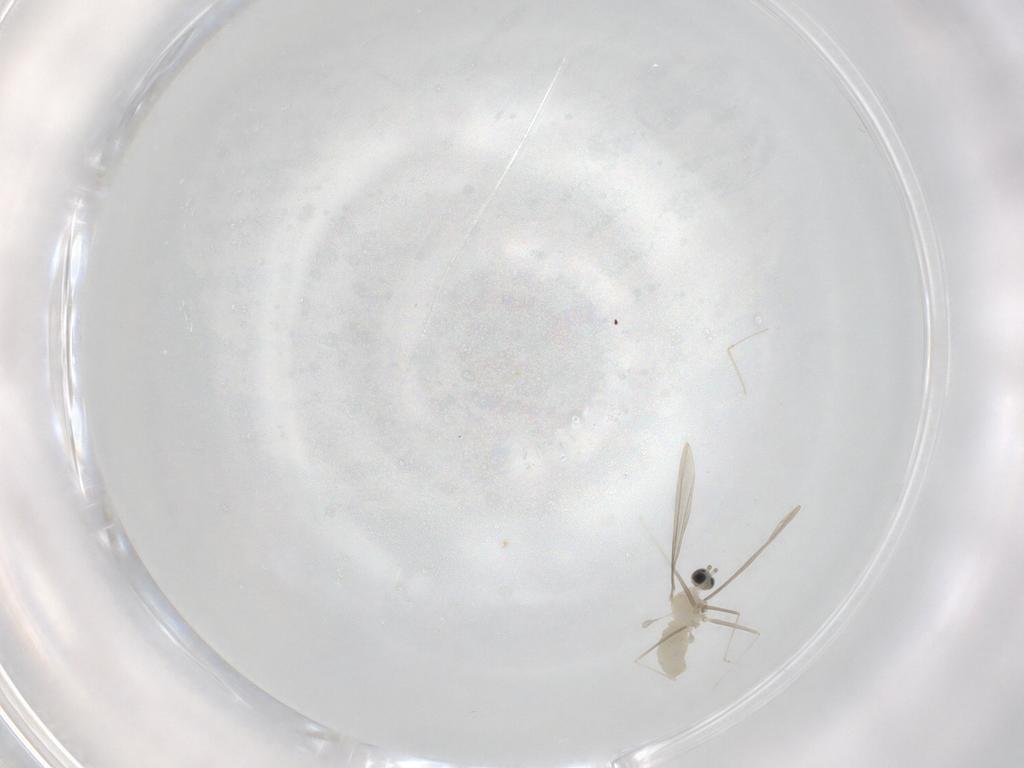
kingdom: Animalia
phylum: Arthropoda
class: Insecta
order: Diptera
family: Cecidomyiidae
